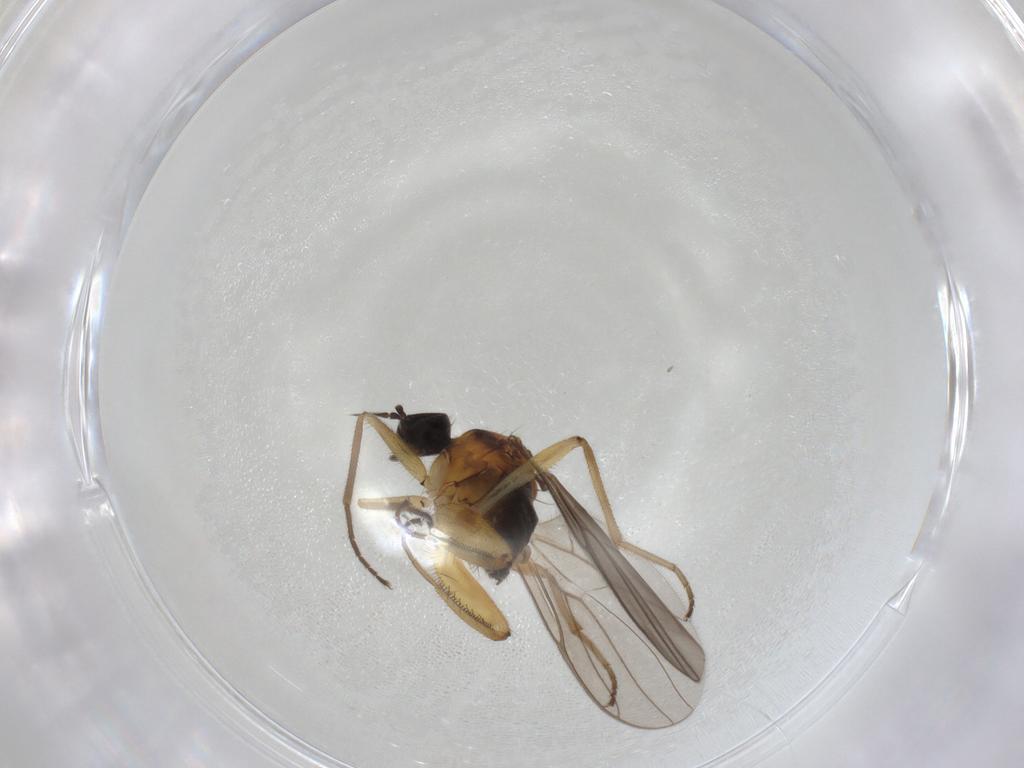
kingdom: Animalia
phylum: Arthropoda
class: Insecta
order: Diptera
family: Hybotidae
